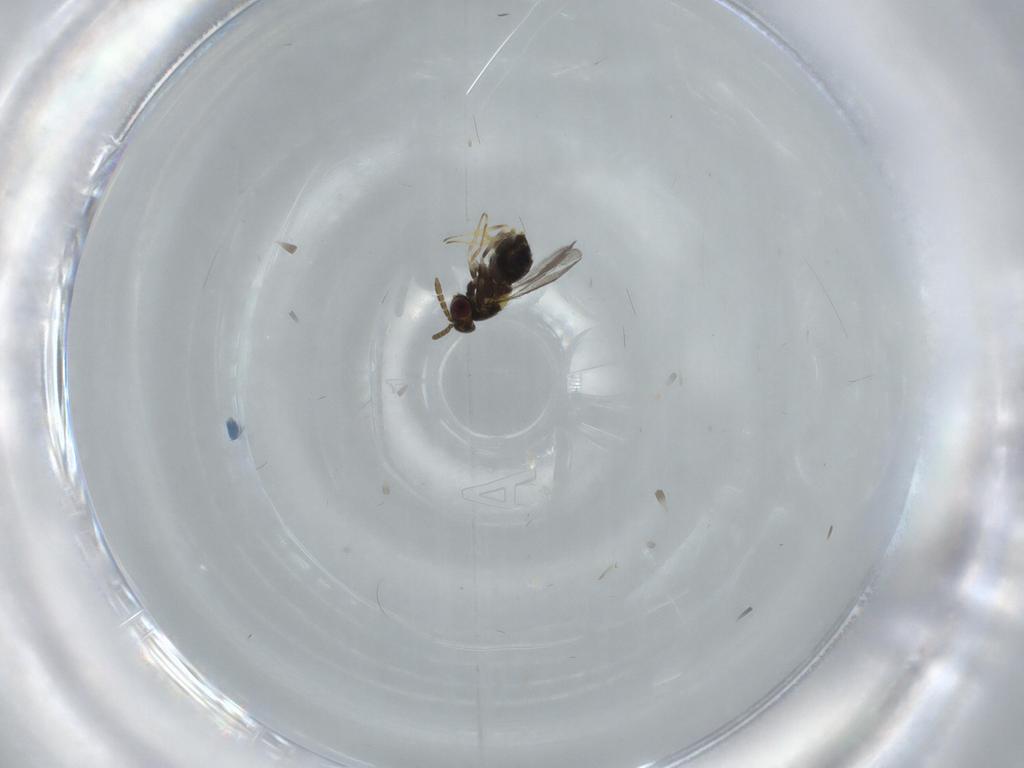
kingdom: Animalia
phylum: Arthropoda
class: Insecta
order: Hymenoptera
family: Aphelinidae
